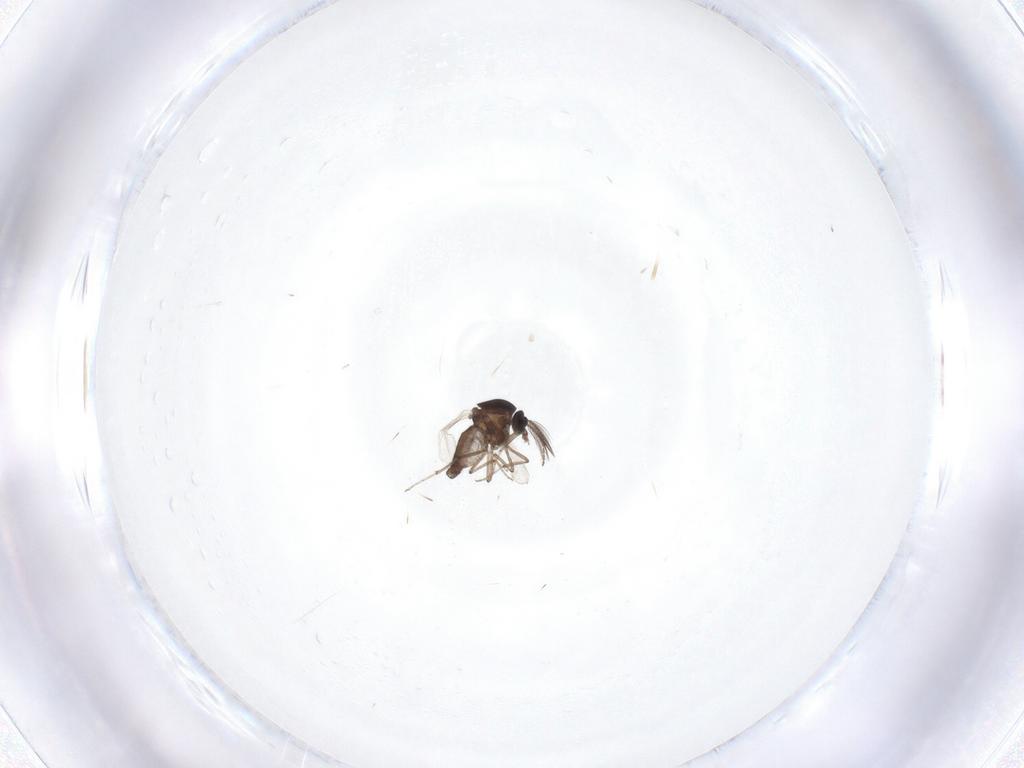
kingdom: Animalia
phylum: Arthropoda
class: Insecta
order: Diptera
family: Ceratopogonidae
